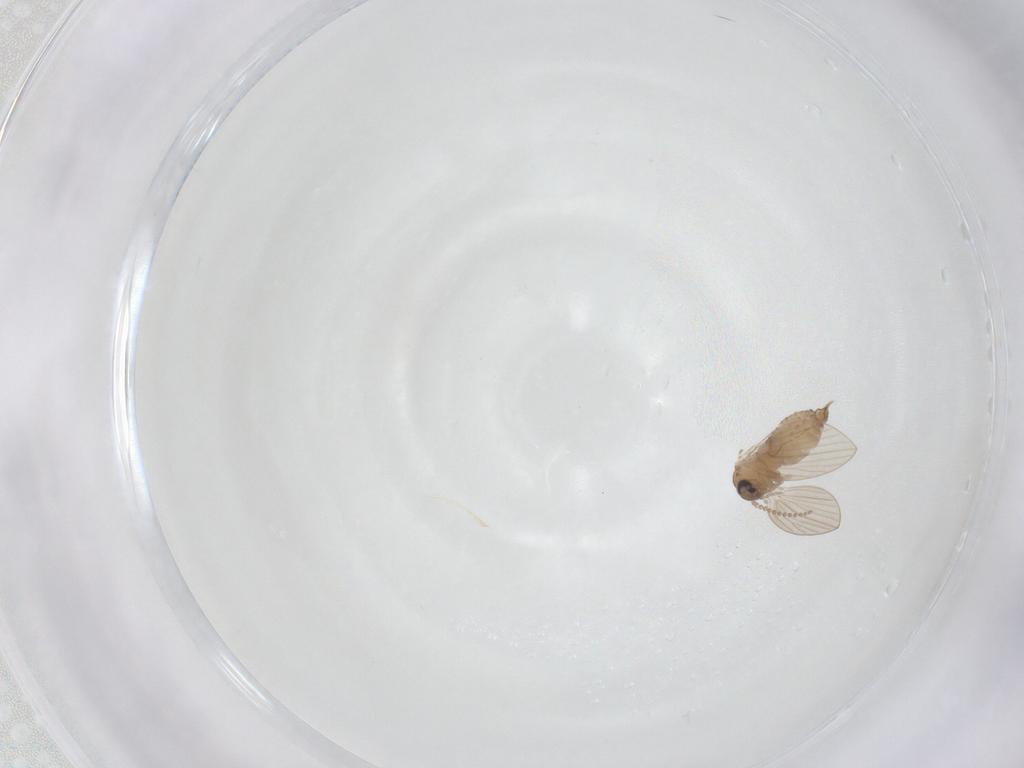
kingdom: Animalia
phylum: Arthropoda
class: Insecta
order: Diptera
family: Psychodidae
